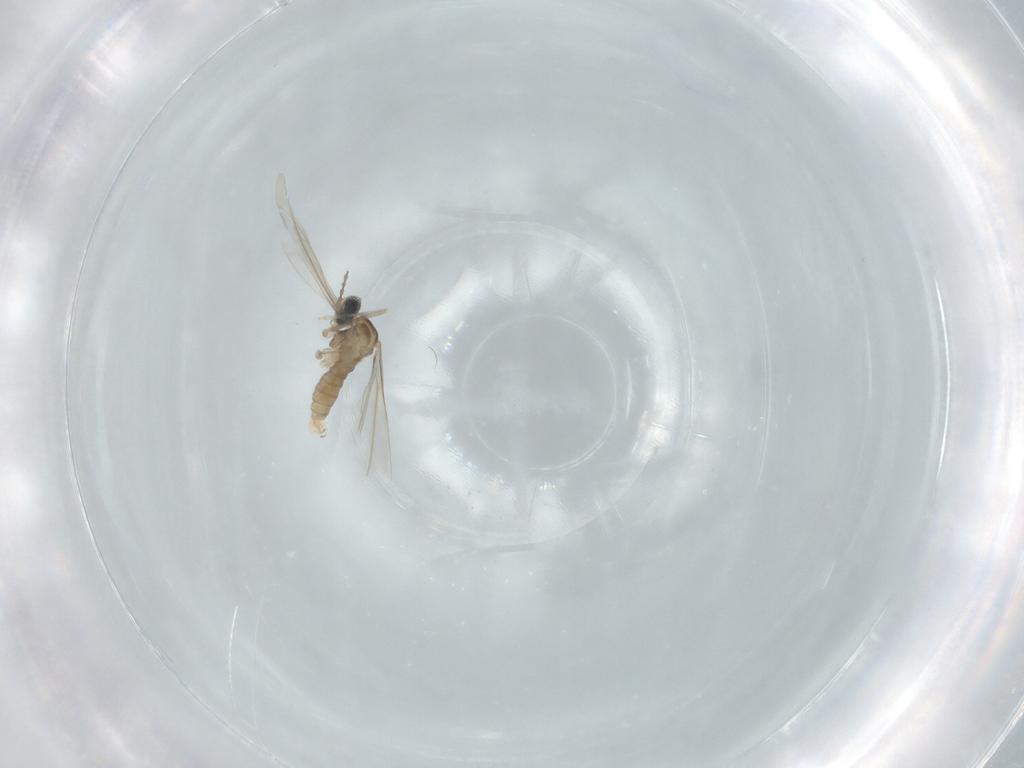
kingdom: Animalia
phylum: Arthropoda
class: Insecta
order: Diptera
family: Cecidomyiidae
